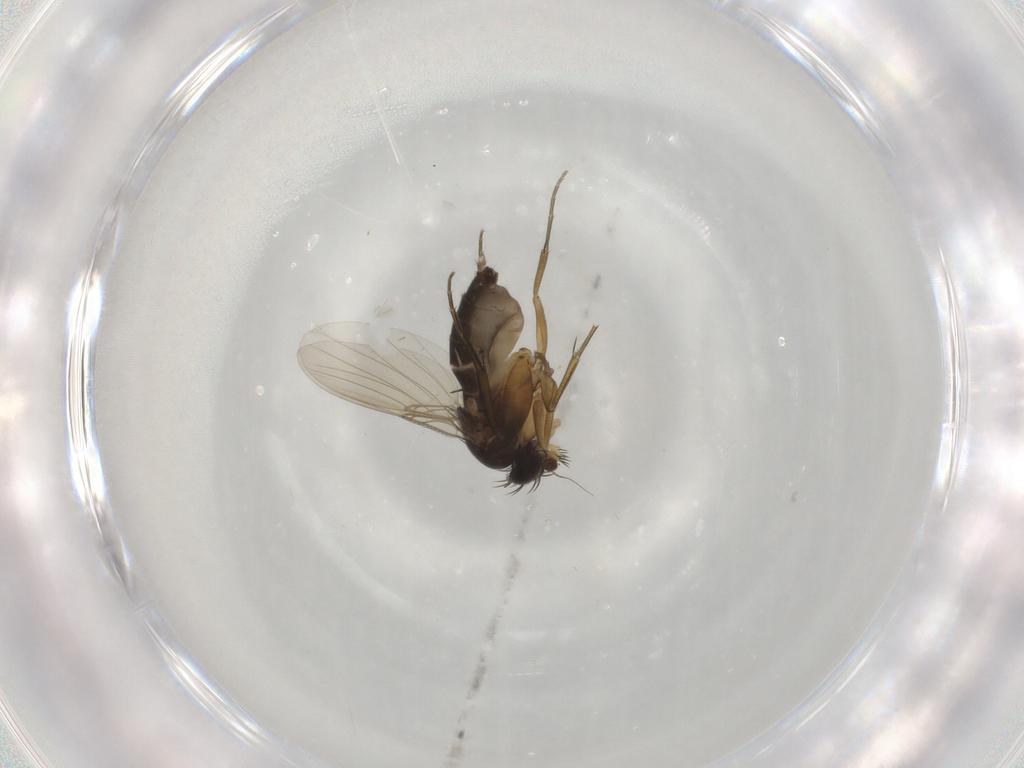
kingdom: Animalia
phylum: Arthropoda
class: Insecta
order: Diptera
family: Phoridae
